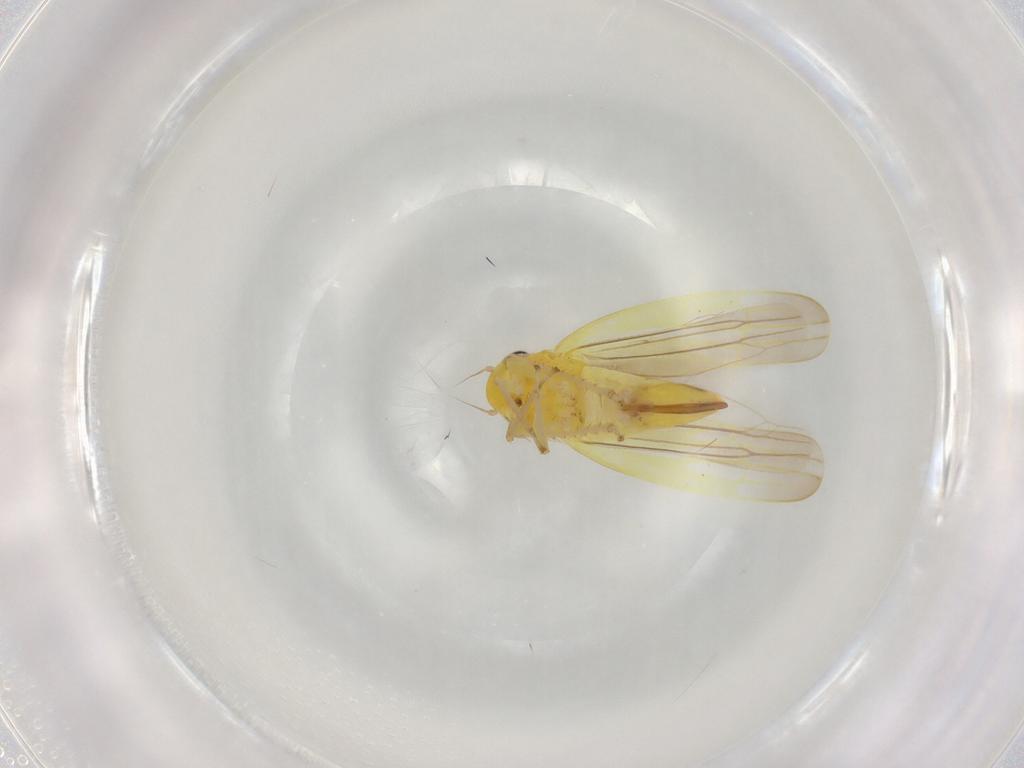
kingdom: Animalia
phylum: Arthropoda
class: Insecta
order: Hemiptera
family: Cicadellidae
